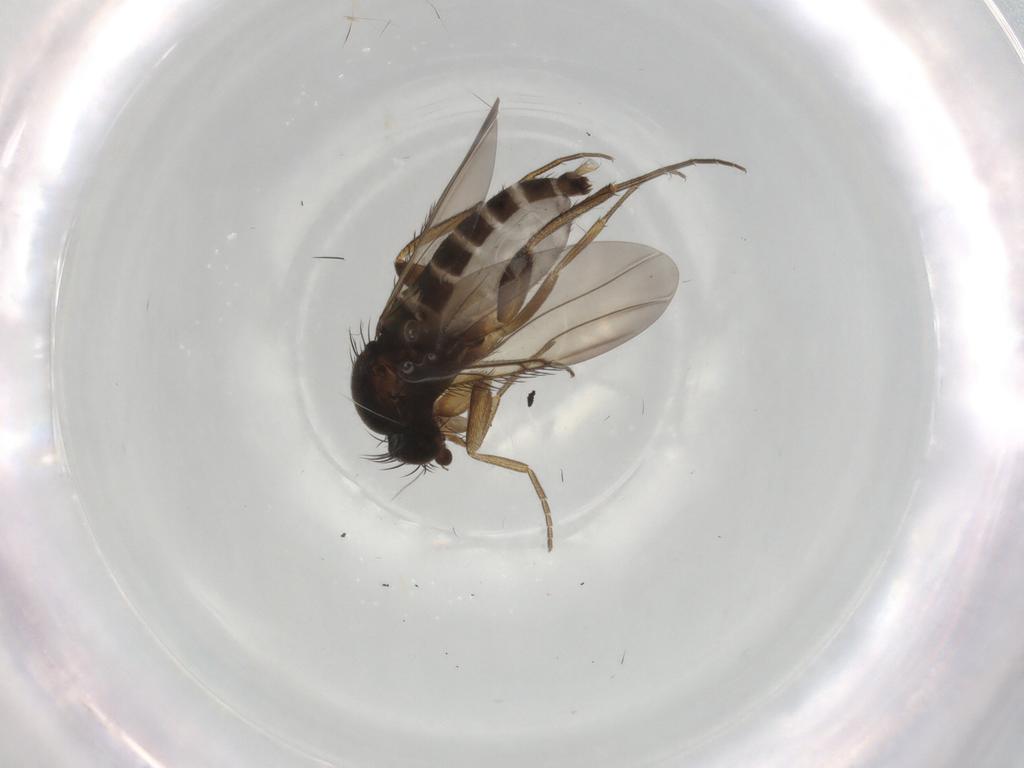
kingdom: Animalia
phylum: Arthropoda
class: Insecta
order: Diptera
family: Phoridae
